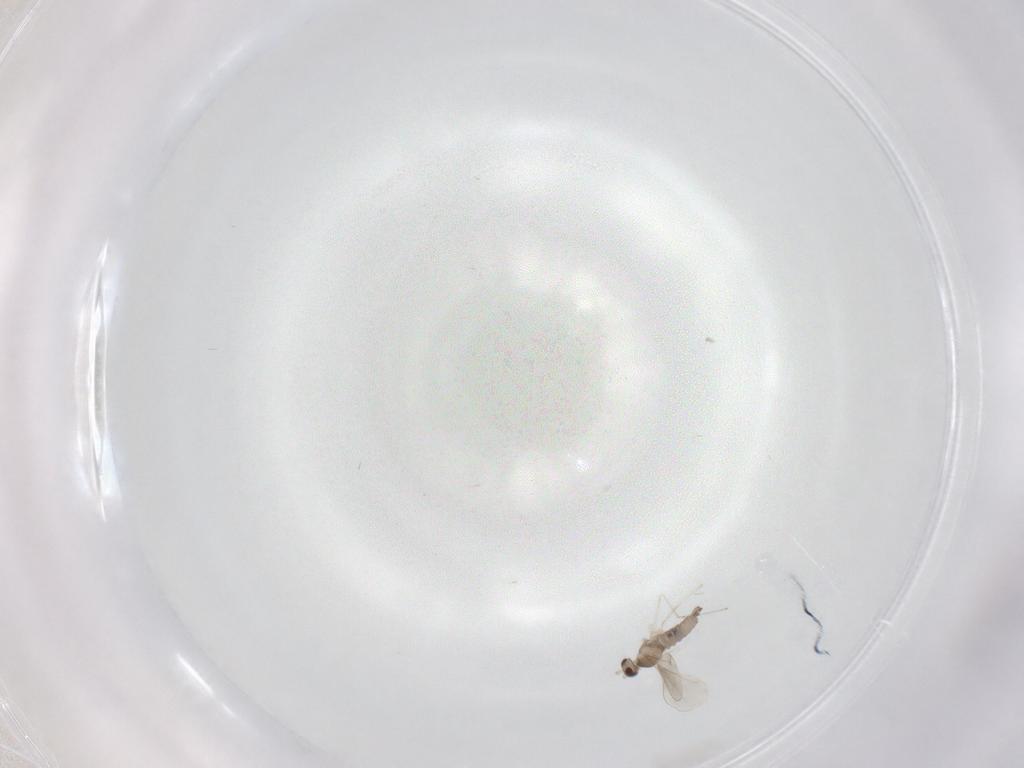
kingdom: Animalia
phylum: Arthropoda
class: Insecta
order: Diptera
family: Cecidomyiidae
